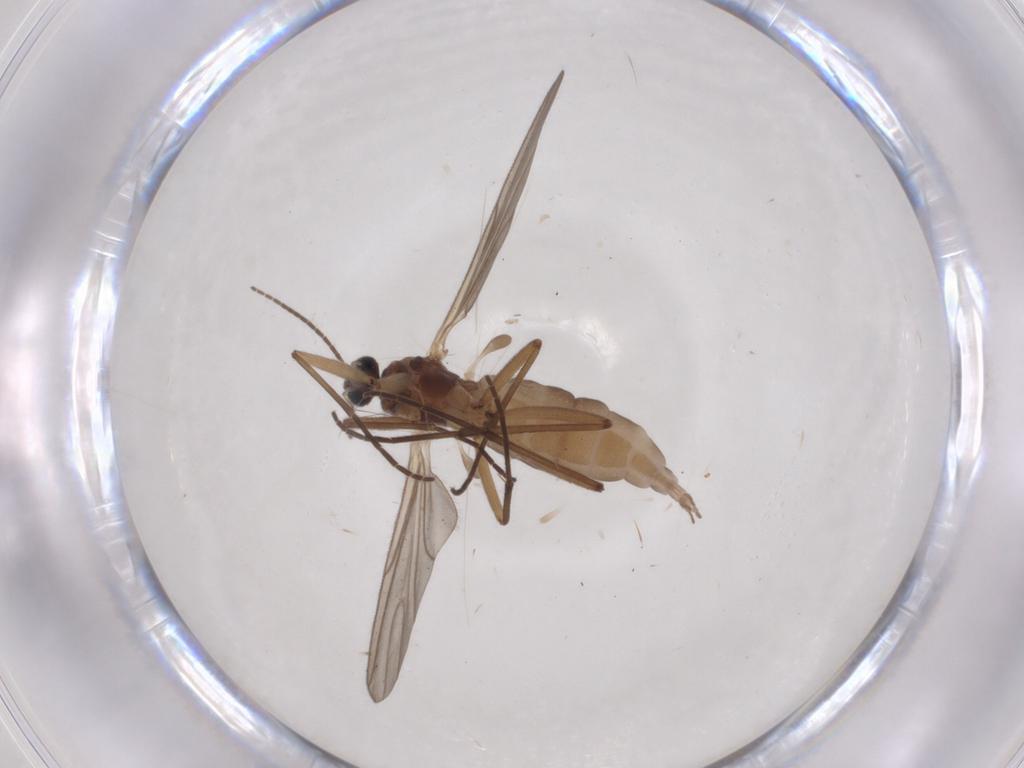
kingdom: Animalia
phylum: Arthropoda
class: Insecta
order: Diptera
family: Sciaridae
